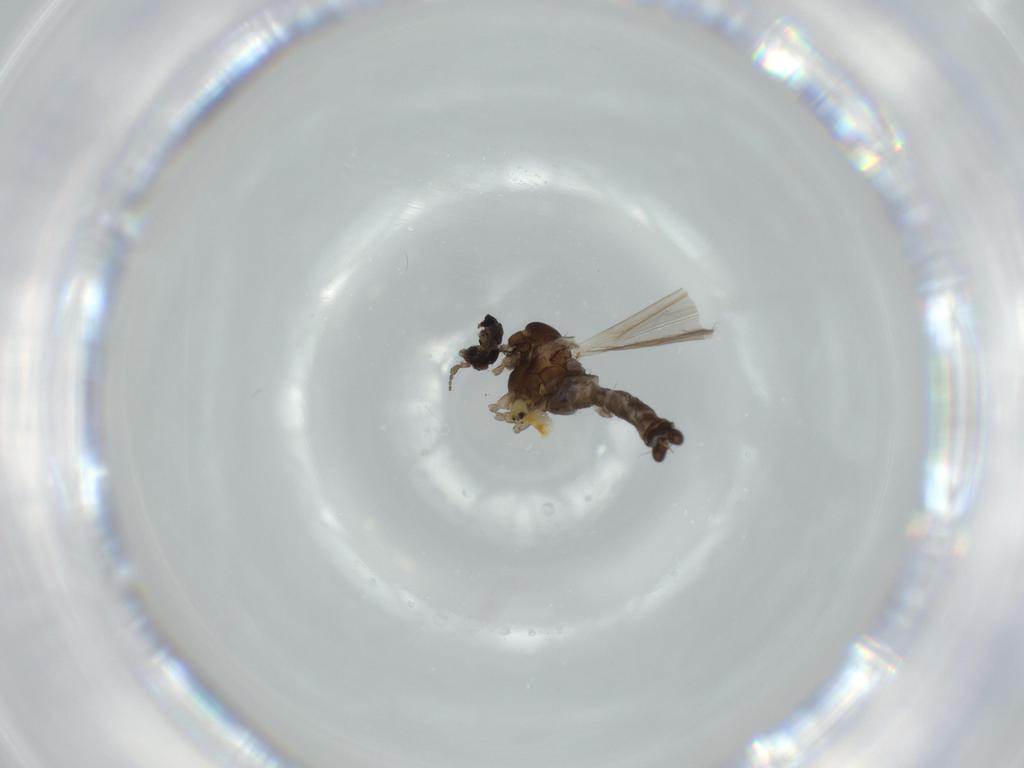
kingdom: Animalia
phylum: Arthropoda
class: Insecta
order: Diptera
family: Limoniidae
